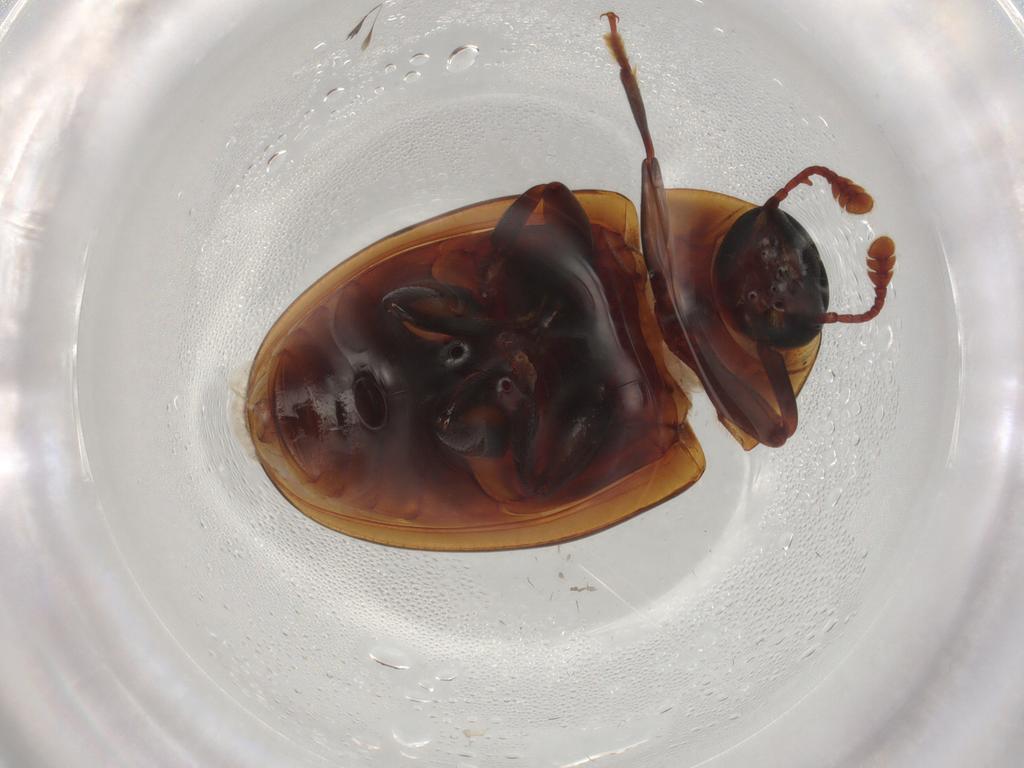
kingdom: Animalia
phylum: Arthropoda
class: Insecta
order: Coleoptera
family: Zopheridae
